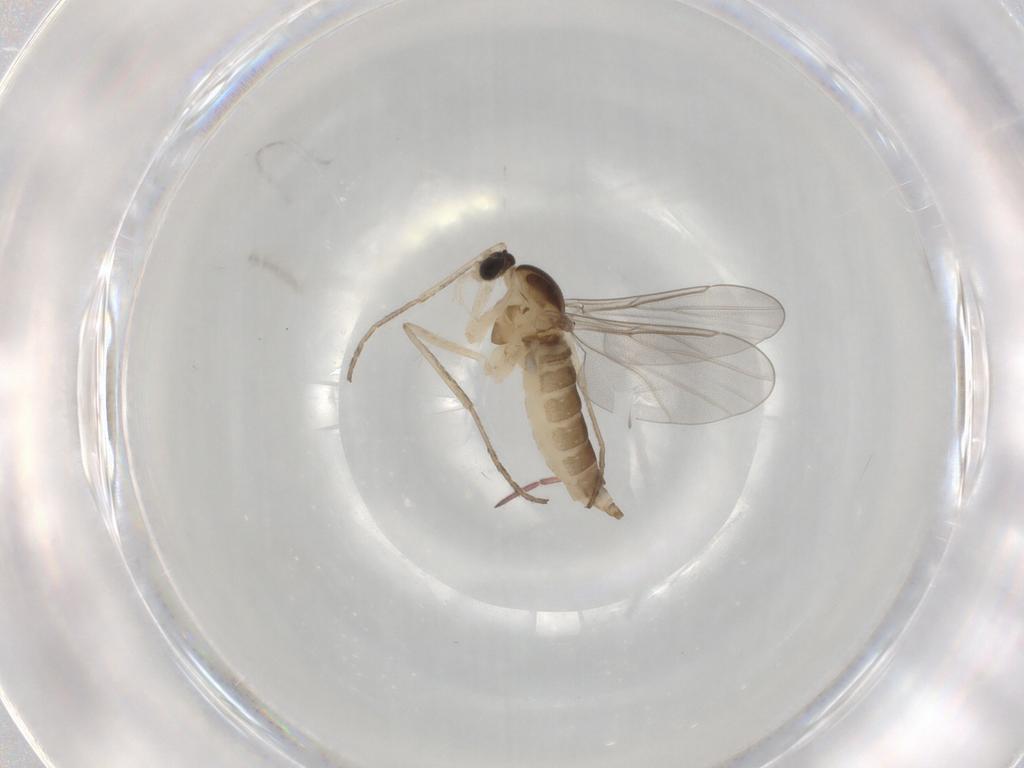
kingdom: Animalia
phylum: Arthropoda
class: Insecta
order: Diptera
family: Cecidomyiidae
